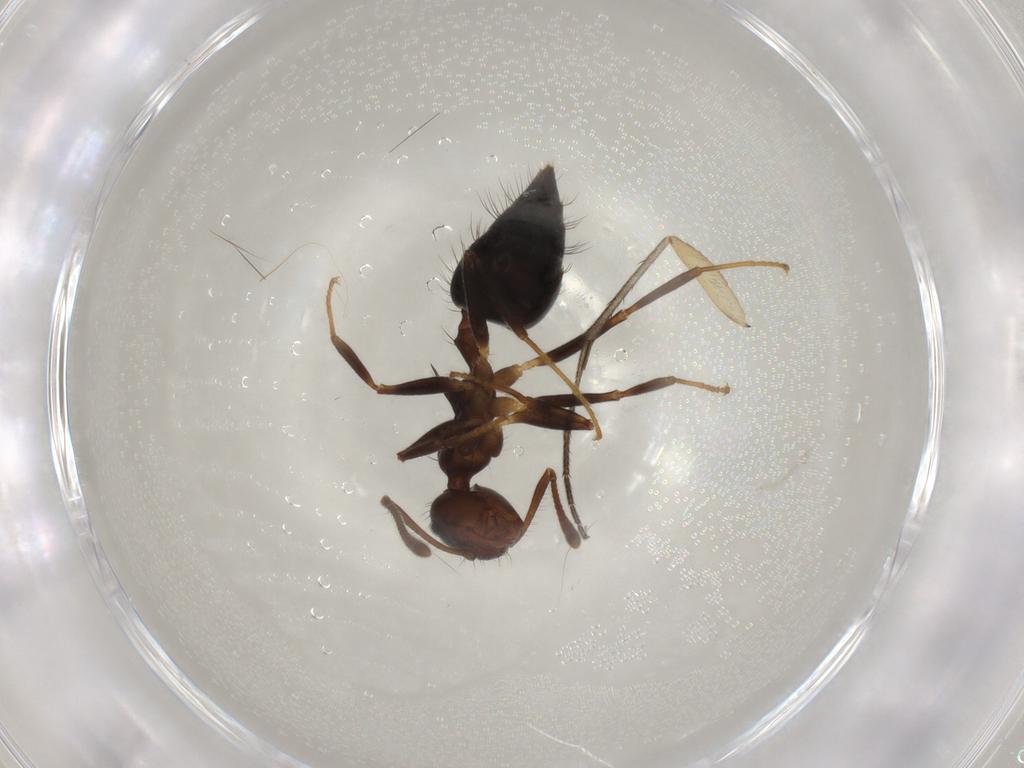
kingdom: Animalia
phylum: Arthropoda
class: Insecta
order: Hymenoptera
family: Formicidae
